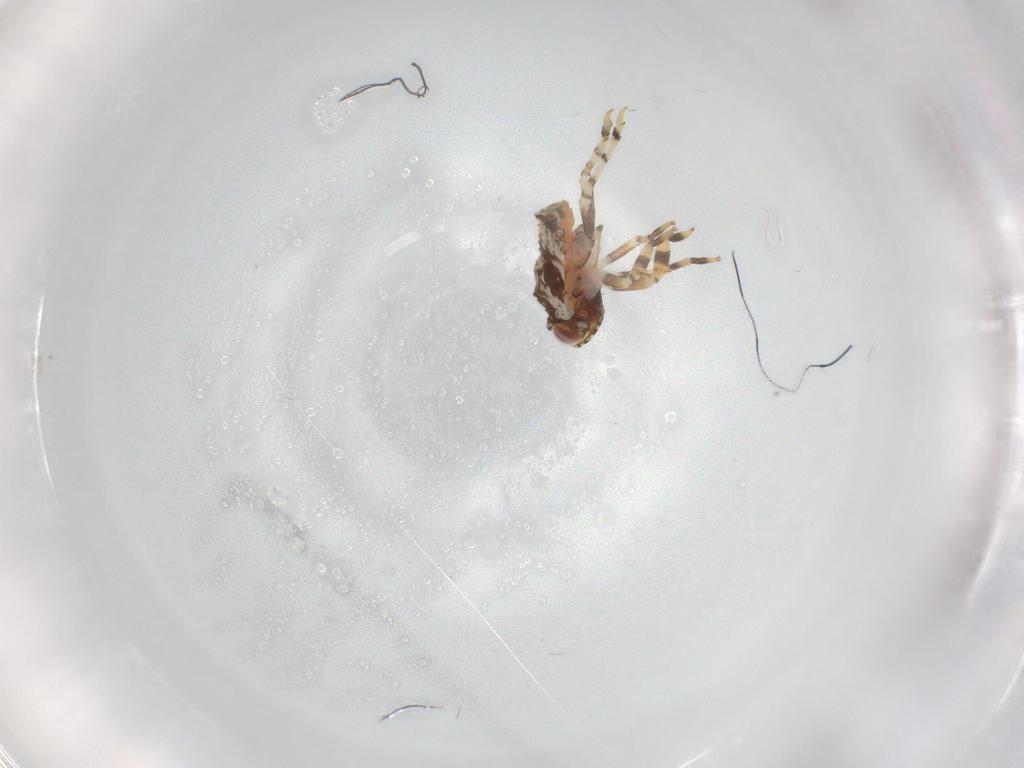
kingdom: Animalia
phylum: Arthropoda
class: Insecta
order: Hemiptera
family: Fulgoroidea_incertae_sedis
